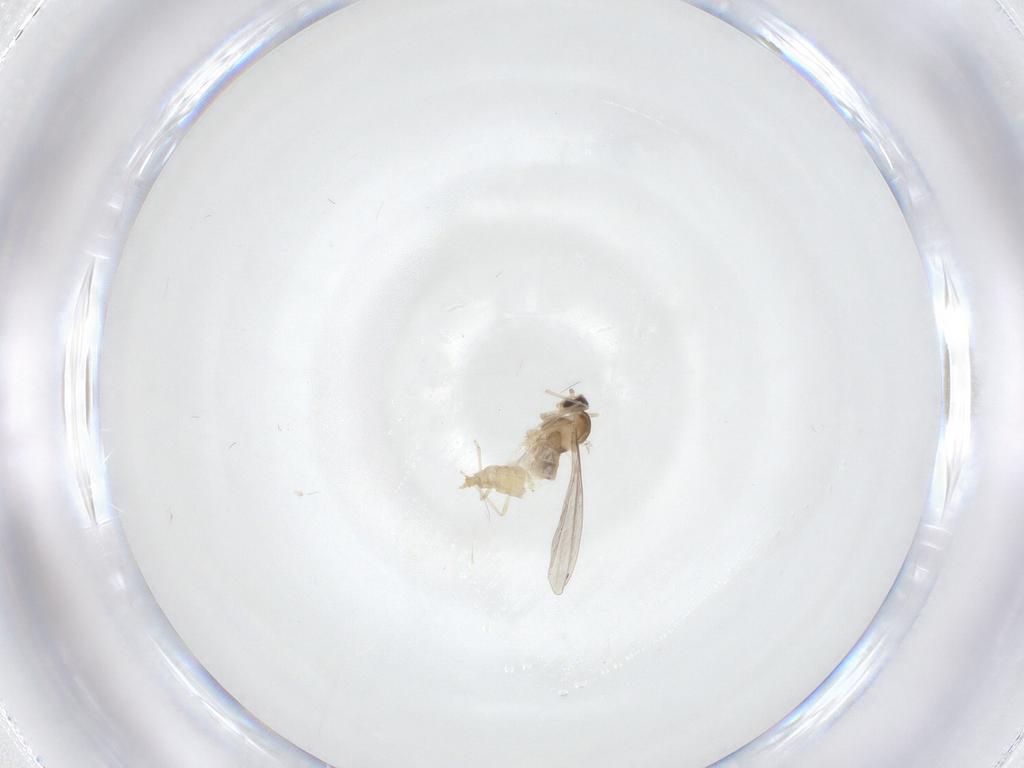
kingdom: Animalia
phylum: Arthropoda
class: Insecta
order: Diptera
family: Cecidomyiidae
